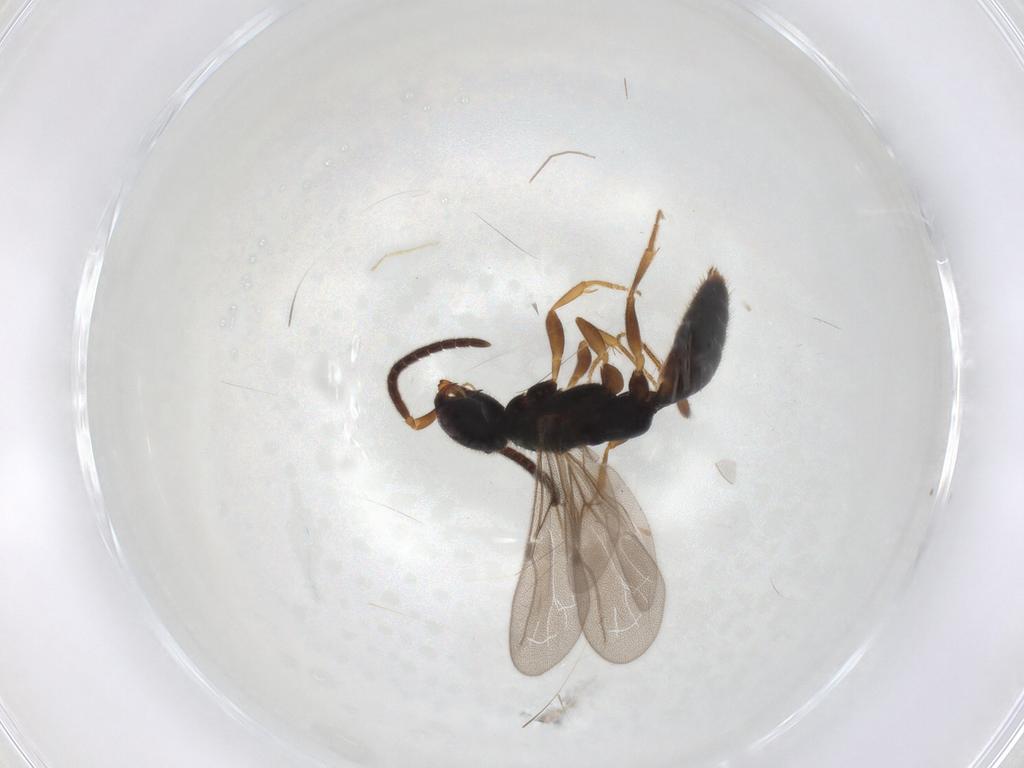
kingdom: Animalia
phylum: Arthropoda
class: Insecta
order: Hymenoptera
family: Bethylidae
